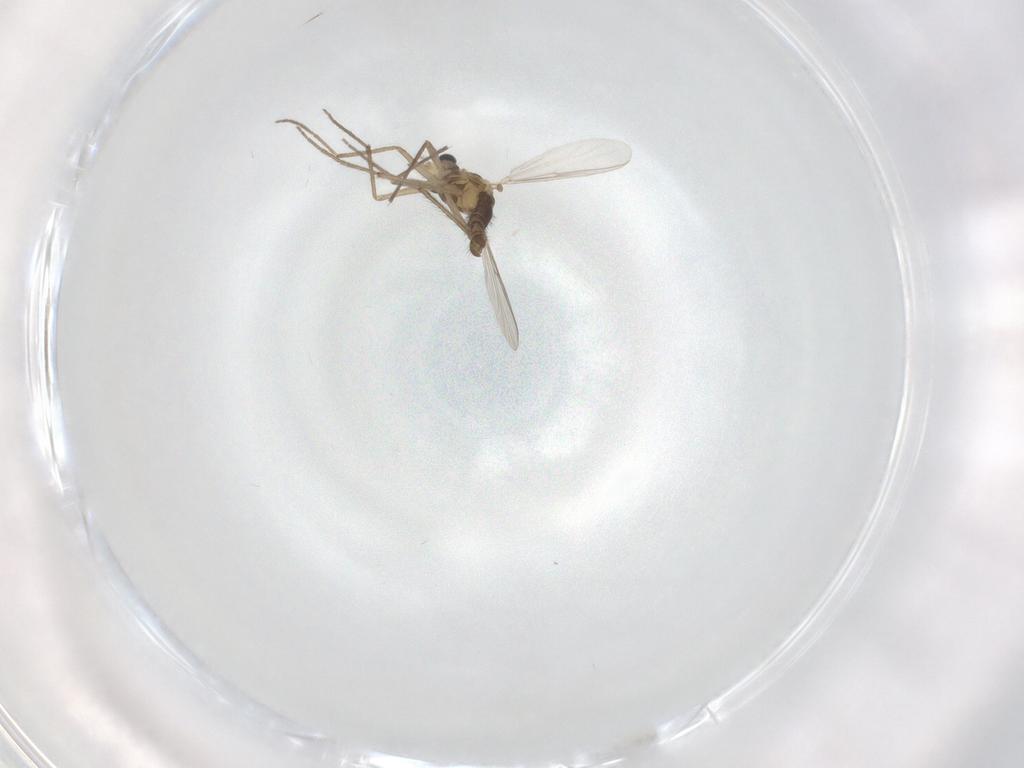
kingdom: Animalia
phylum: Arthropoda
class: Insecta
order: Diptera
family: Chironomidae
